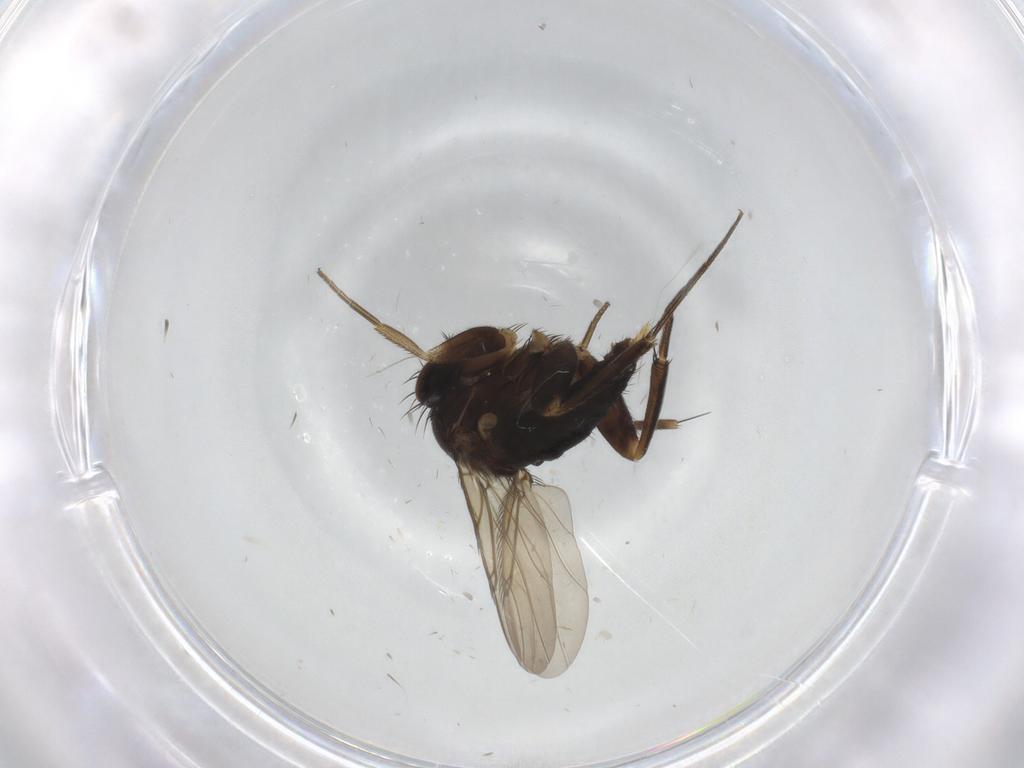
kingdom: Animalia
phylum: Arthropoda
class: Insecta
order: Diptera
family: Phoridae
